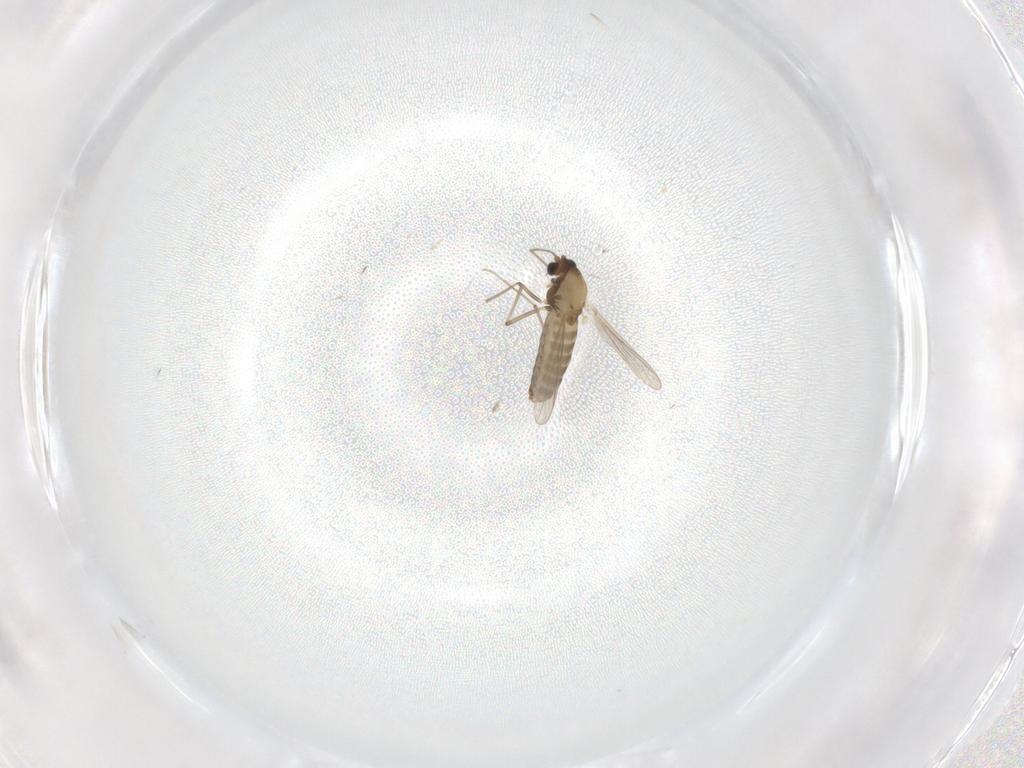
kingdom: Animalia
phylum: Arthropoda
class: Insecta
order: Diptera
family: Chironomidae
